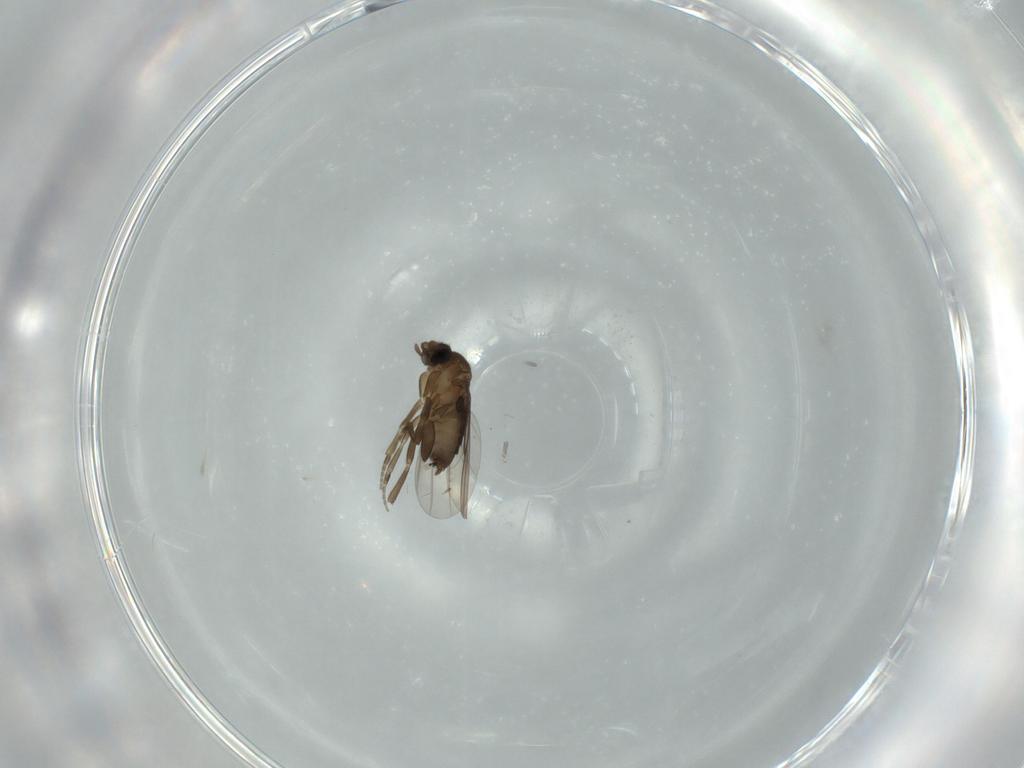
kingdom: Animalia
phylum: Arthropoda
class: Insecta
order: Diptera
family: Phoridae
